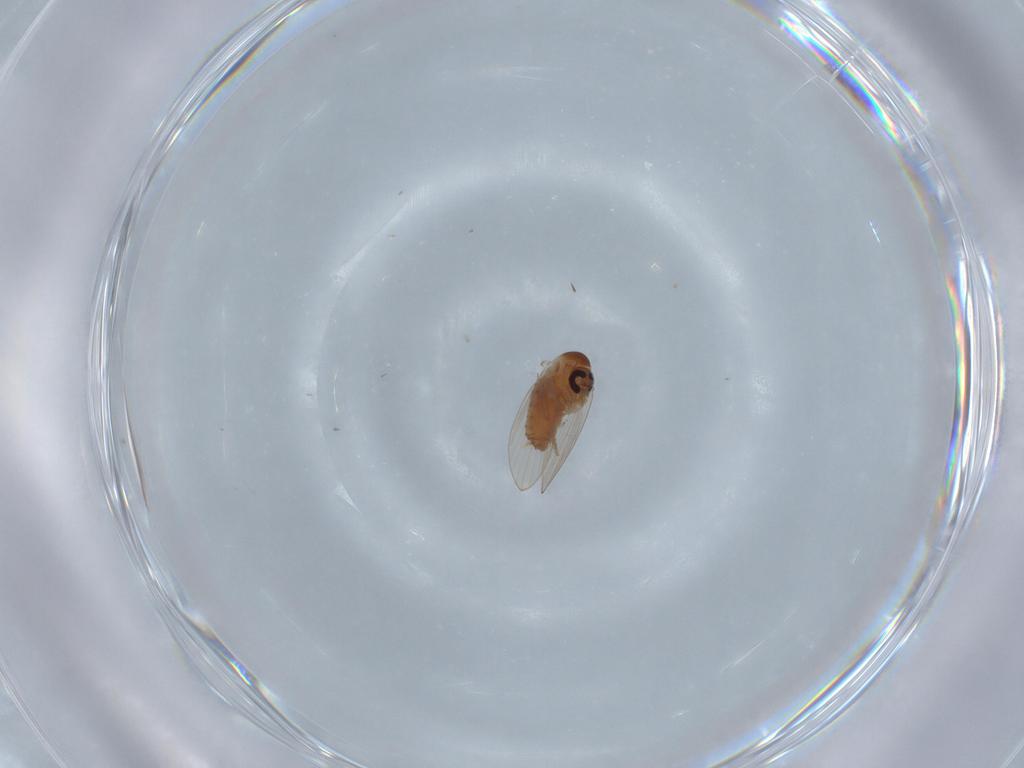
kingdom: Animalia
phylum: Arthropoda
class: Insecta
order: Diptera
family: Psychodidae
